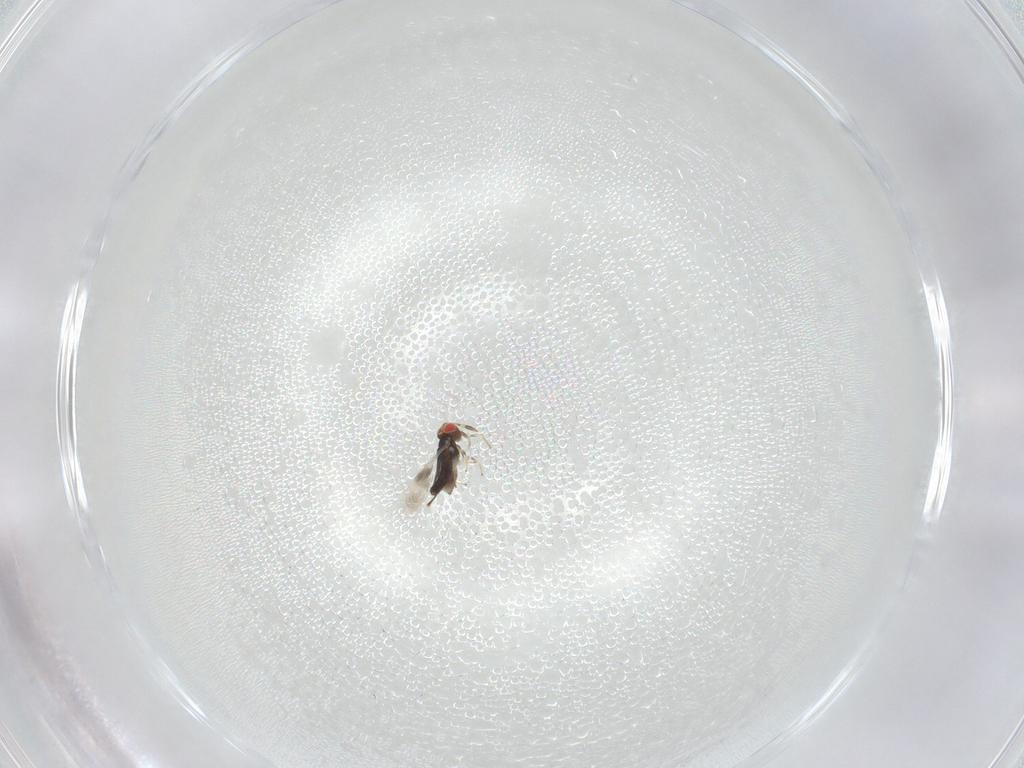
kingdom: Animalia
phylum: Arthropoda
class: Insecta
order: Hymenoptera
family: Azotidae
